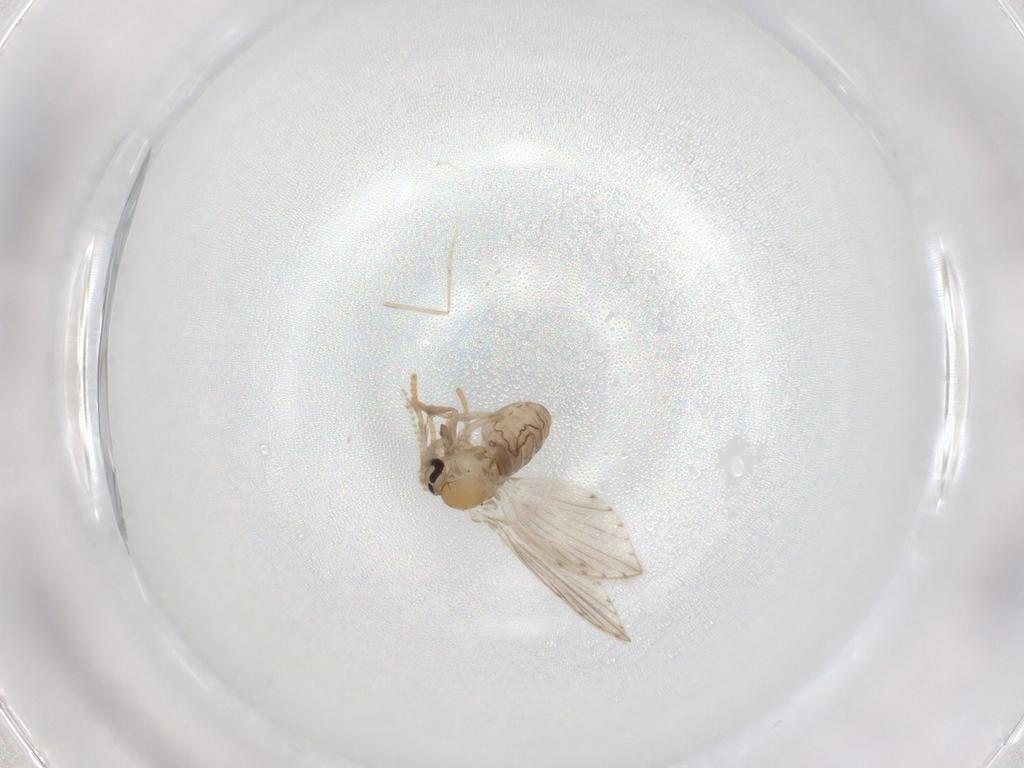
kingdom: Animalia
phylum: Arthropoda
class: Insecta
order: Diptera
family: Psychodidae
